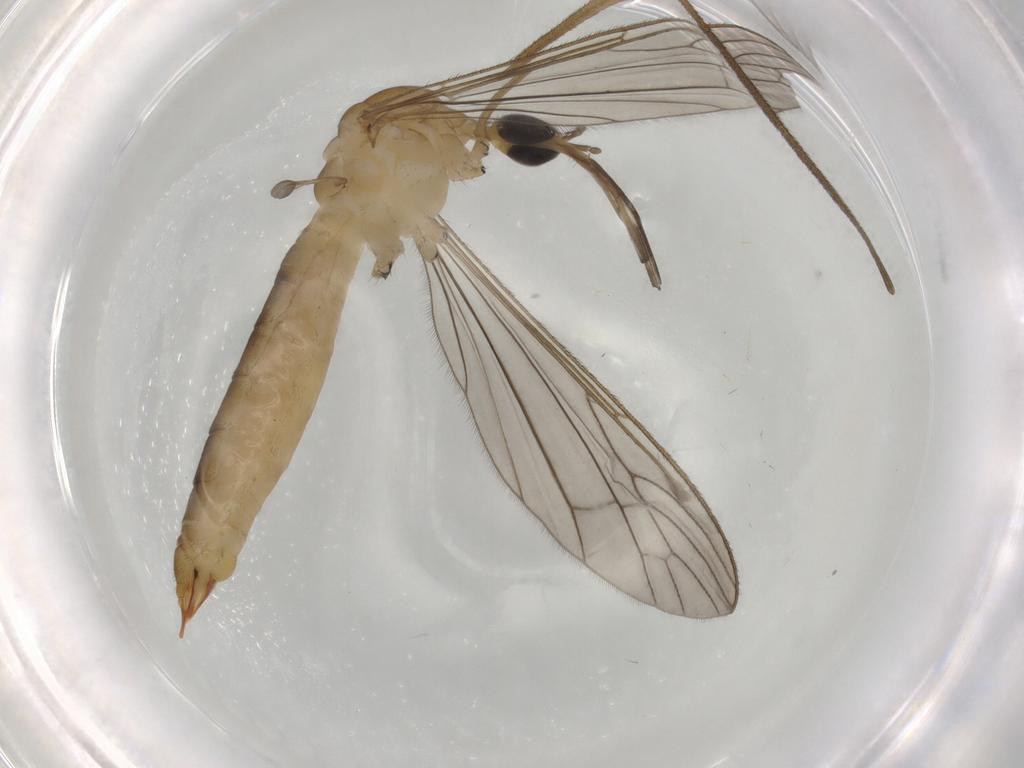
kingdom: Animalia
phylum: Arthropoda
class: Insecta
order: Diptera
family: Limoniidae
